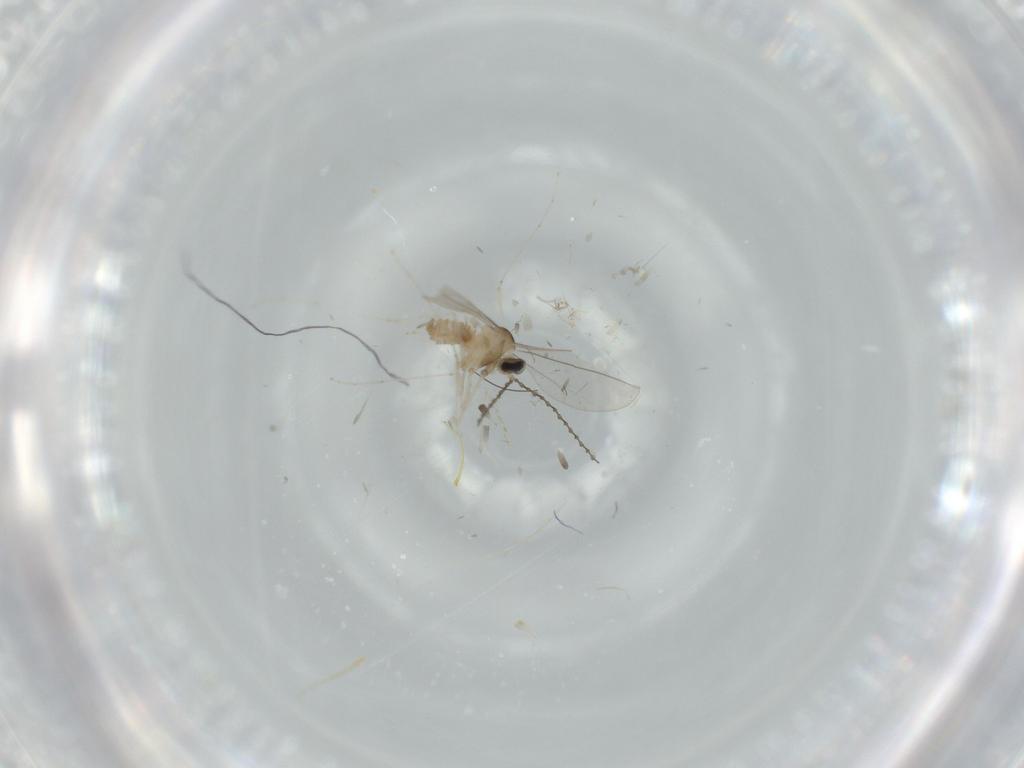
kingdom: Animalia
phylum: Arthropoda
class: Insecta
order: Diptera
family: Cecidomyiidae
